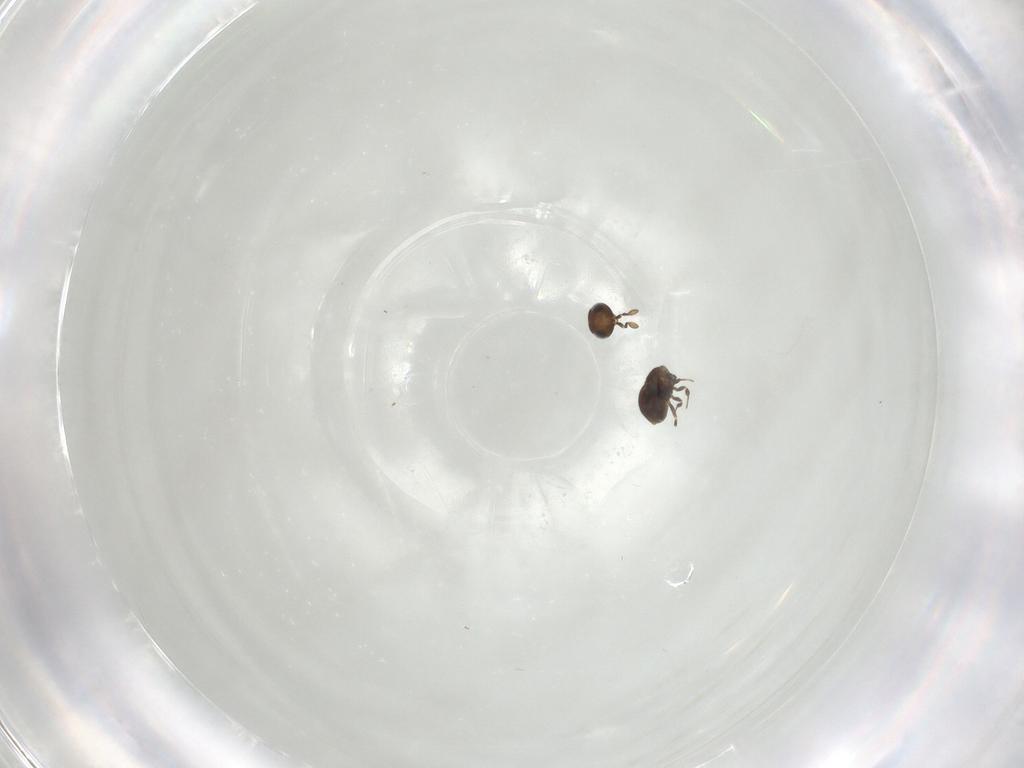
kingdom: Animalia
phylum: Arthropoda
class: Insecta
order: Hymenoptera
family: Scelionidae
